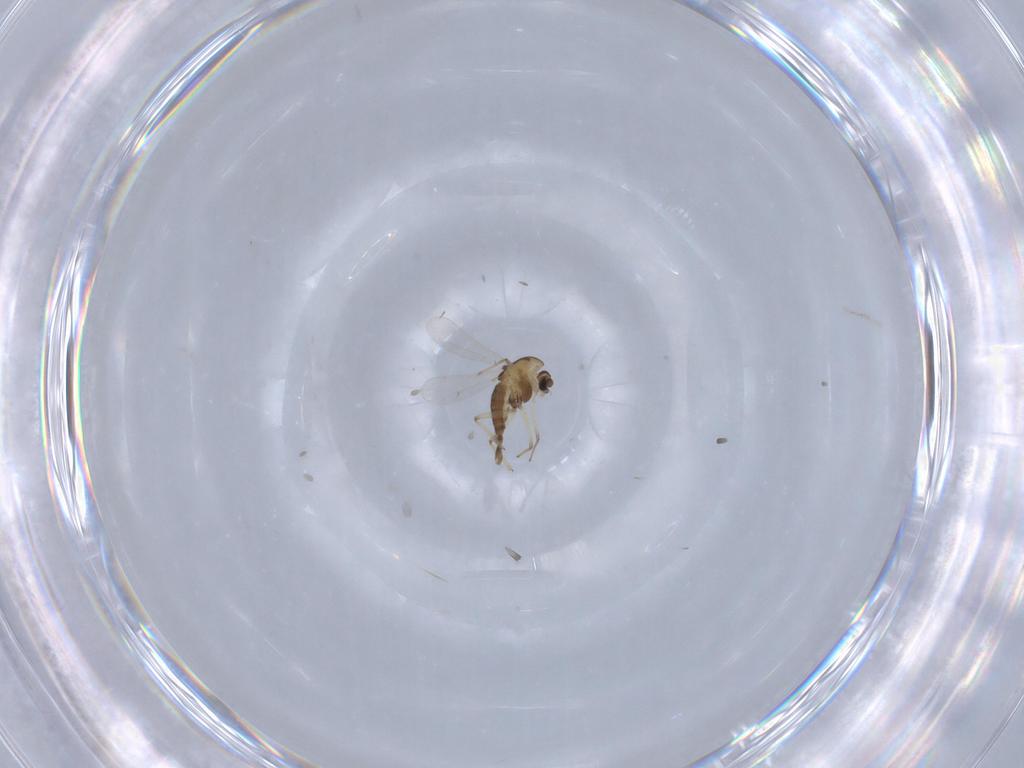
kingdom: Animalia
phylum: Arthropoda
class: Insecta
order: Diptera
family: Chironomidae
